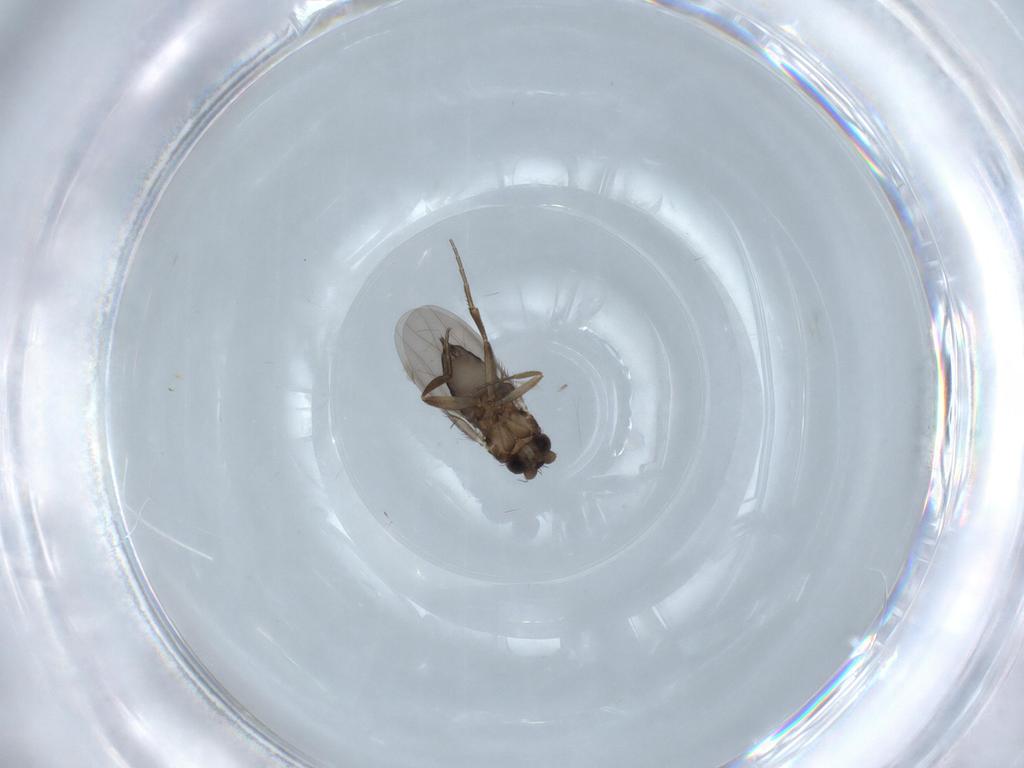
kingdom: Animalia
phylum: Arthropoda
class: Insecta
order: Diptera
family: Phoridae
